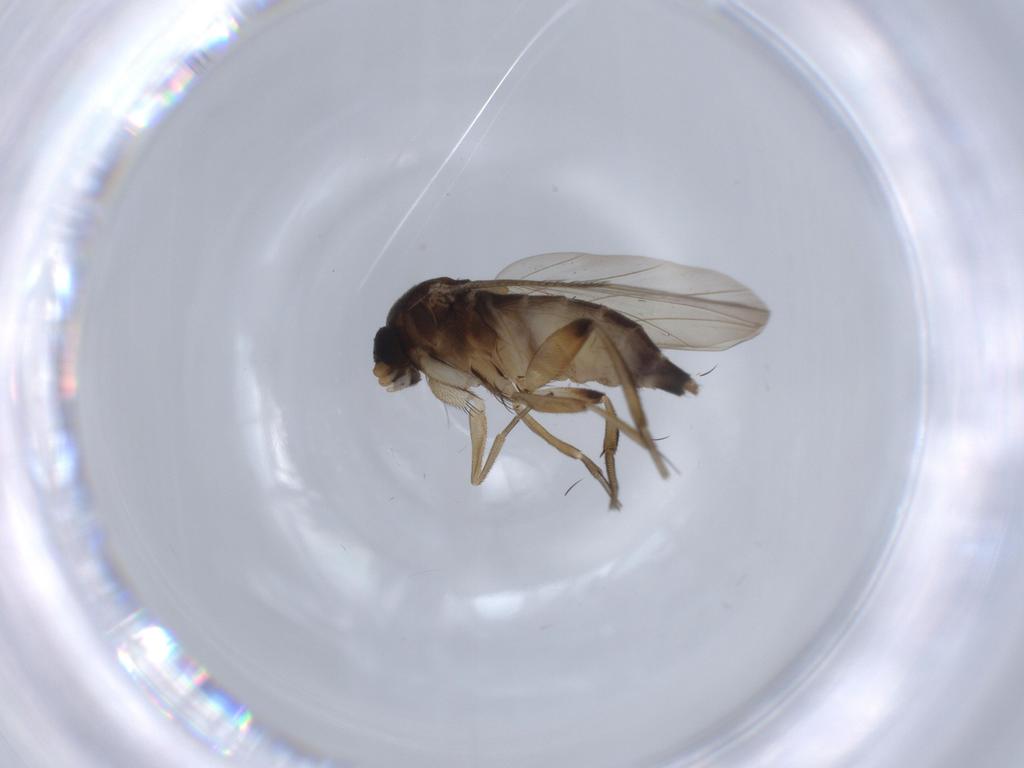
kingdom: Animalia
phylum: Arthropoda
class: Insecta
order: Diptera
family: Phoridae
